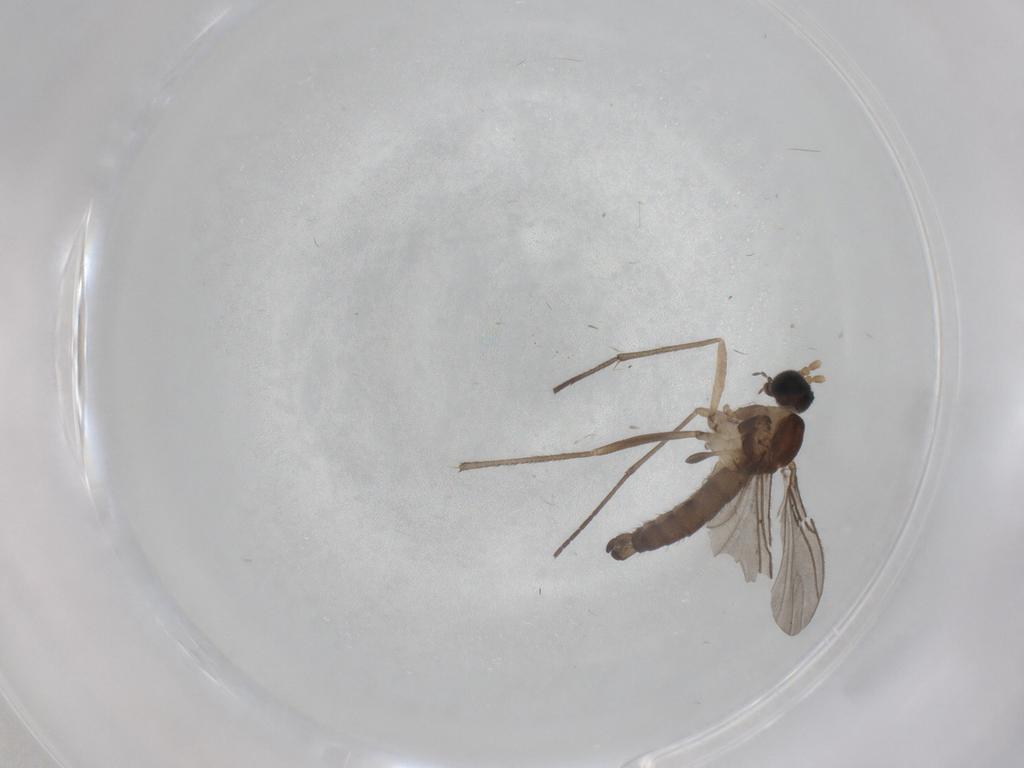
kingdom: Animalia
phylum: Arthropoda
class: Insecta
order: Diptera
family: Sciaridae
